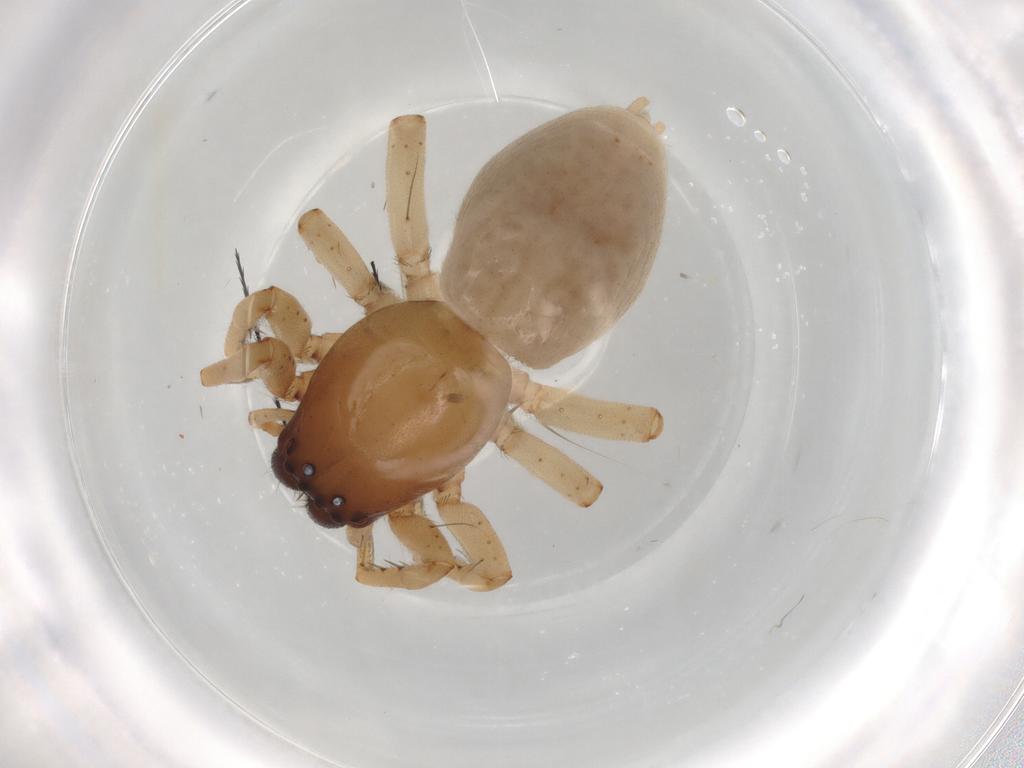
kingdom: Animalia
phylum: Arthropoda
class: Arachnida
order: Araneae
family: Clubionidae
